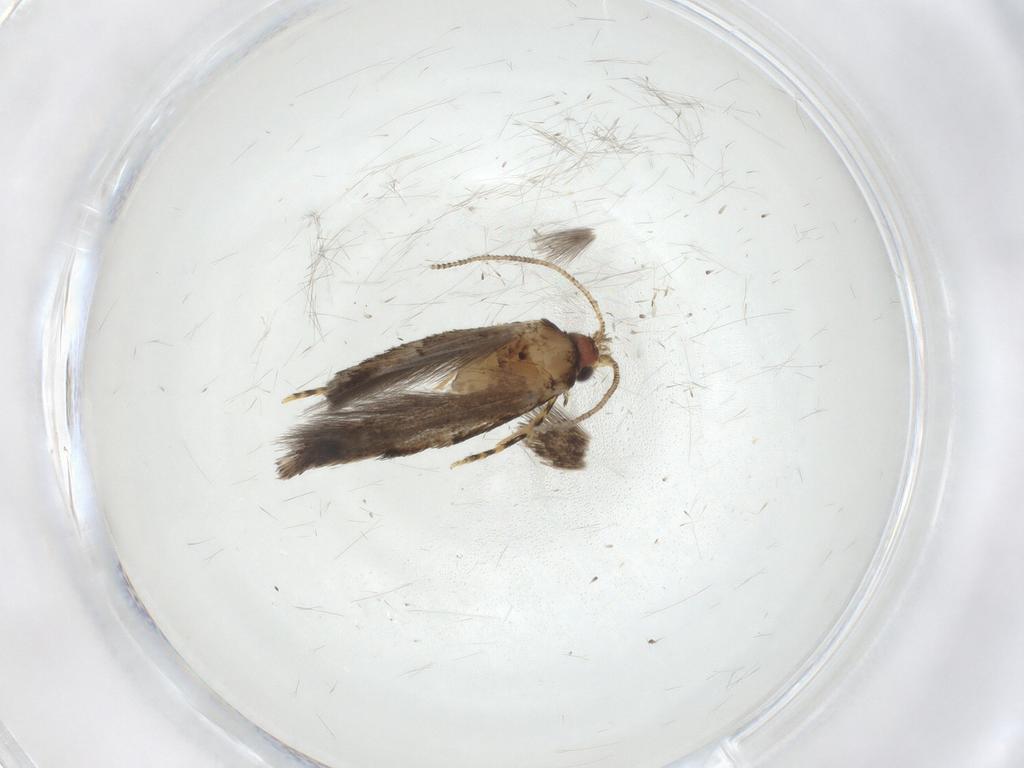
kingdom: Animalia
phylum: Arthropoda
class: Insecta
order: Lepidoptera
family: Meessiidae
